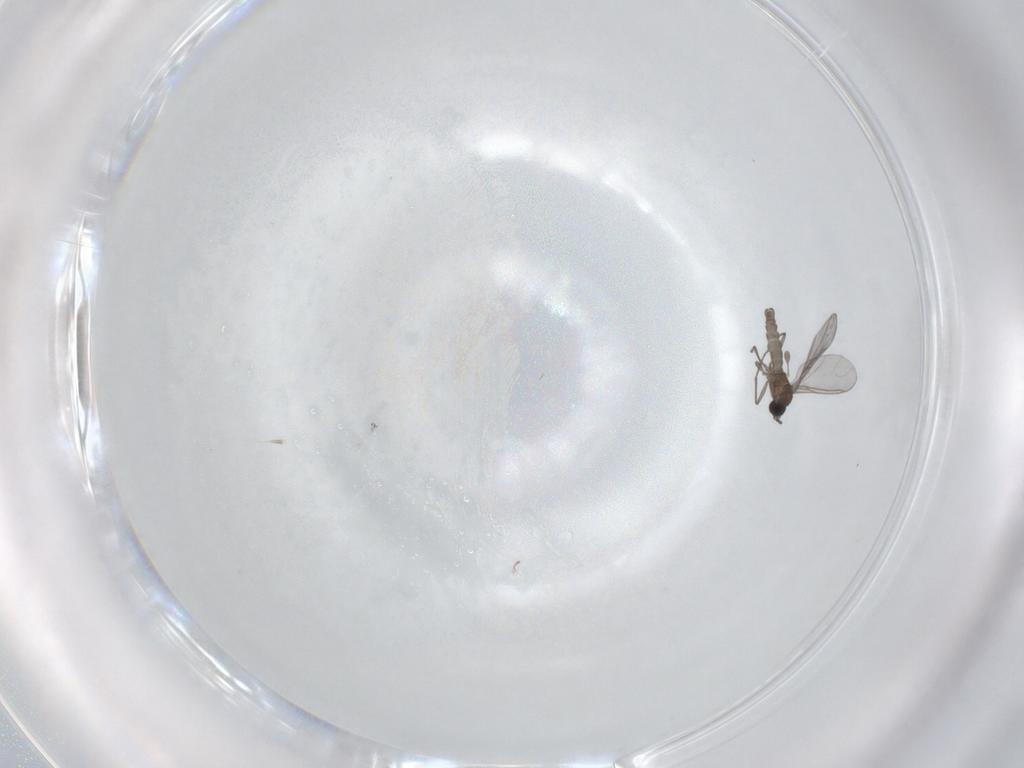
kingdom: Animalia
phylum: Arthropoda
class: Insecta
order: Diptera
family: Sciaridae
